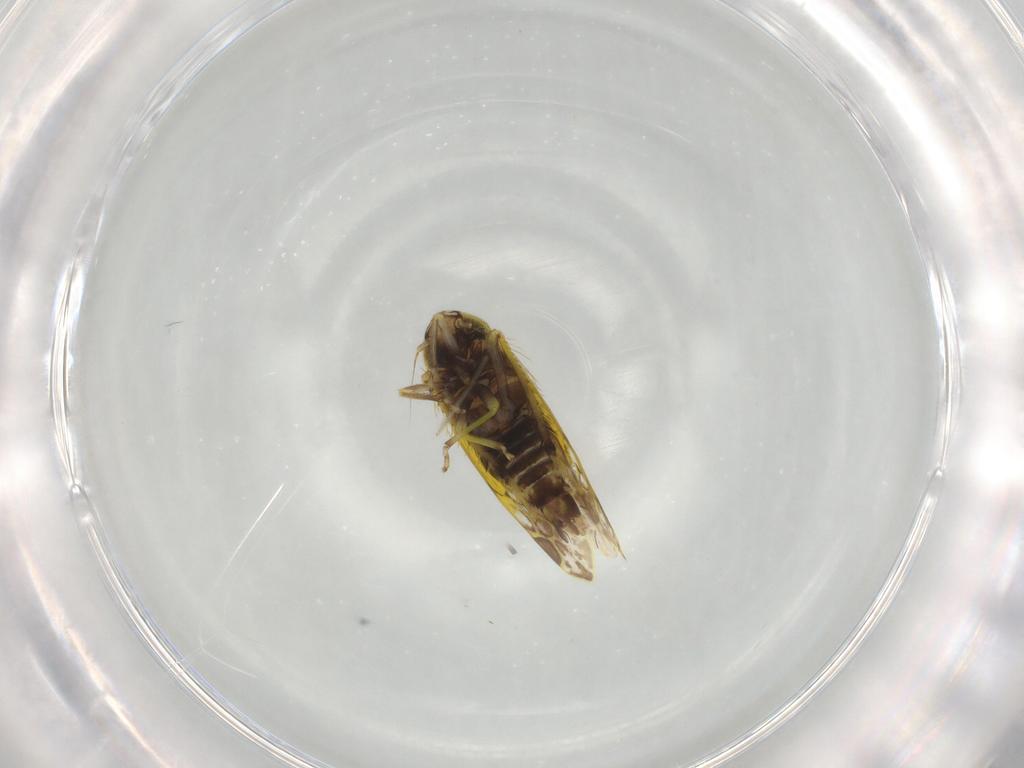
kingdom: Animalia
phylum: Arthropoda
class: Insecta
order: Hemiptera
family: Cicadellidae
